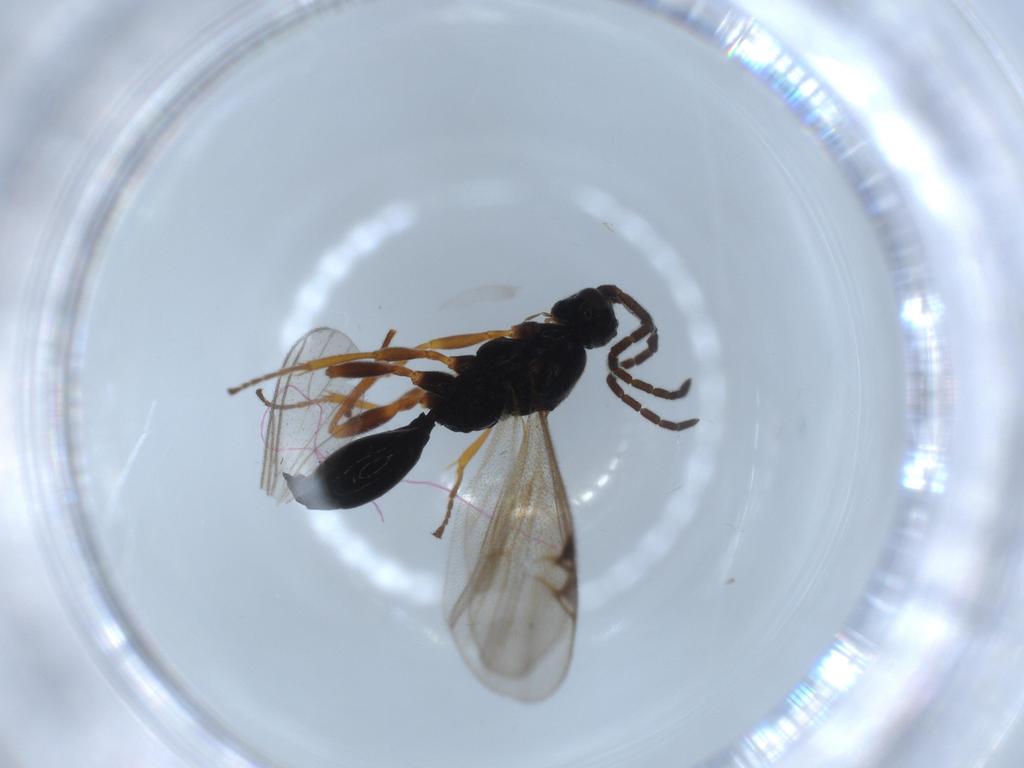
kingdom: Animalia
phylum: Arthropoda
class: Insecta
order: Hymenoptera
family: Proctotrupidae
